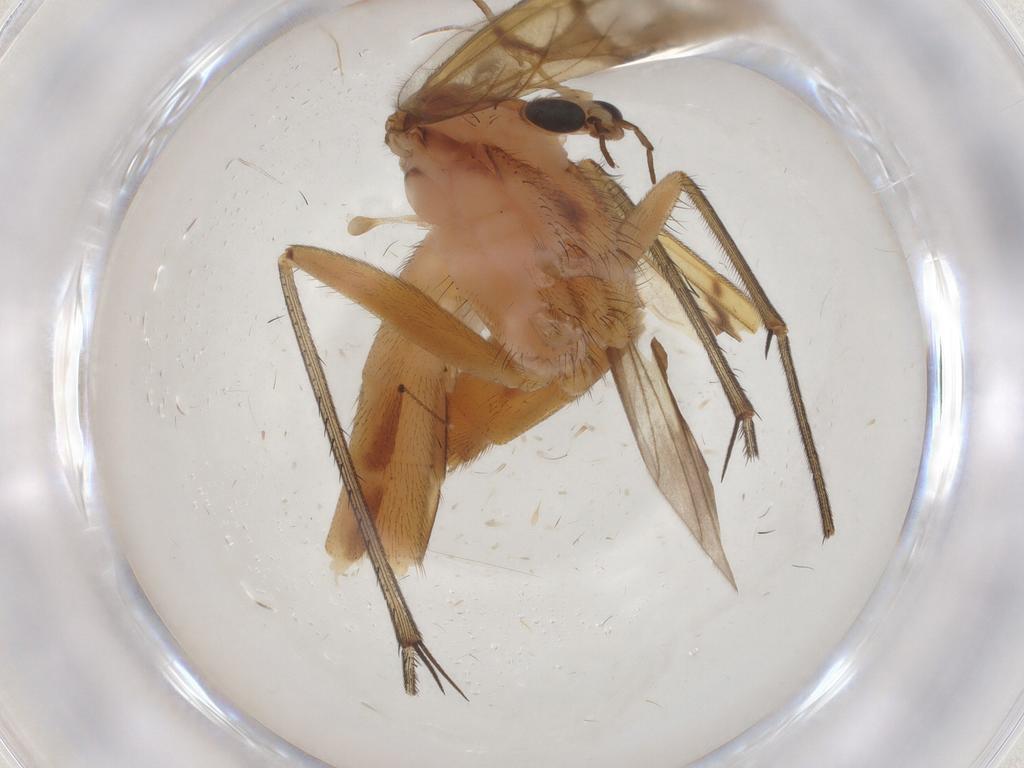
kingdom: Animalia
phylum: Arthropoda
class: Insecta
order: Diptera
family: Mycetophilidae
